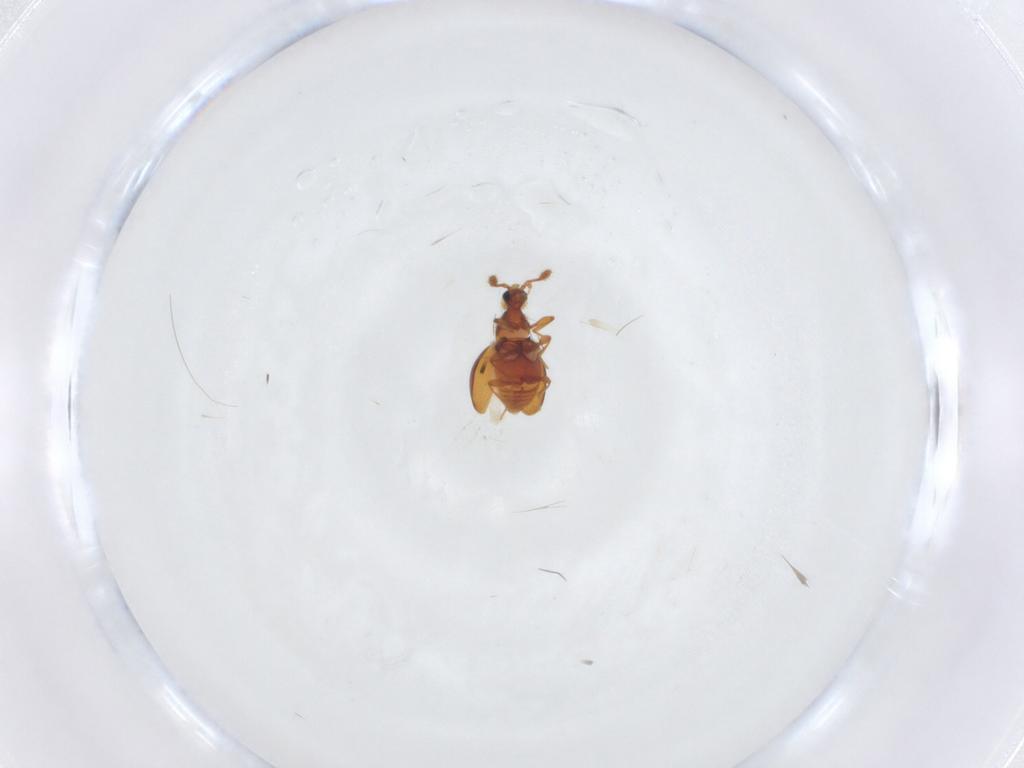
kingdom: Animalia
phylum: Arthropoda
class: Insecta
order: Coleoptera
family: Staphylinidae
